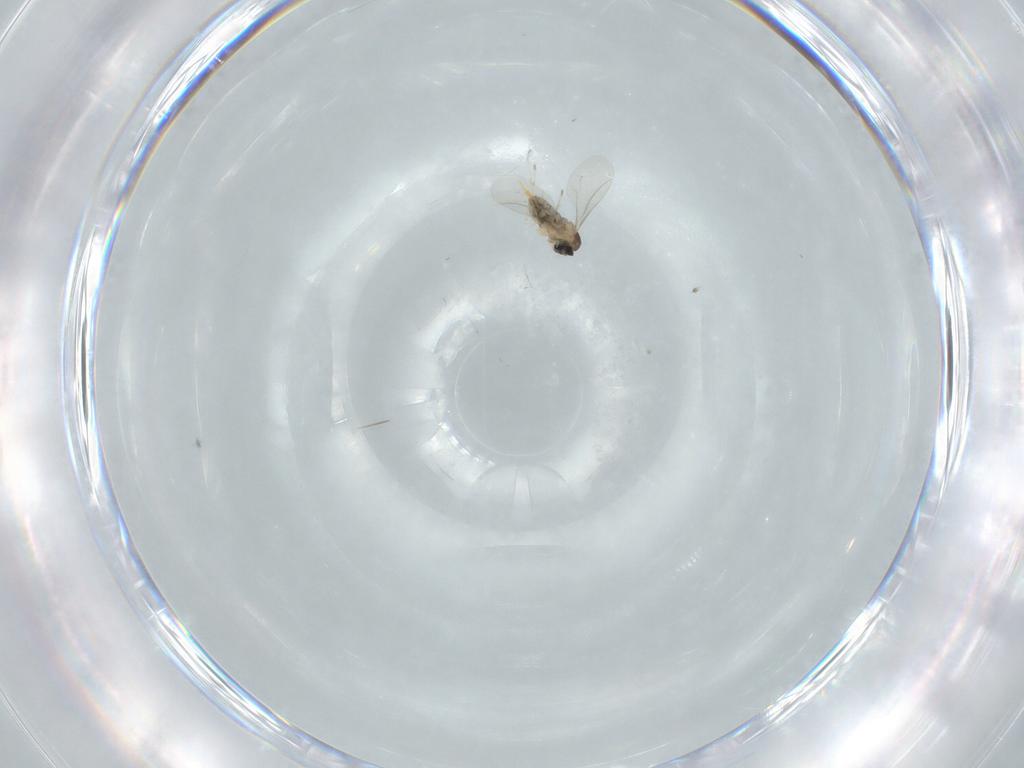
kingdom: Animalia
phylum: Arthropoda
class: Insecta
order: Diptera
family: Cecidomyiidae
